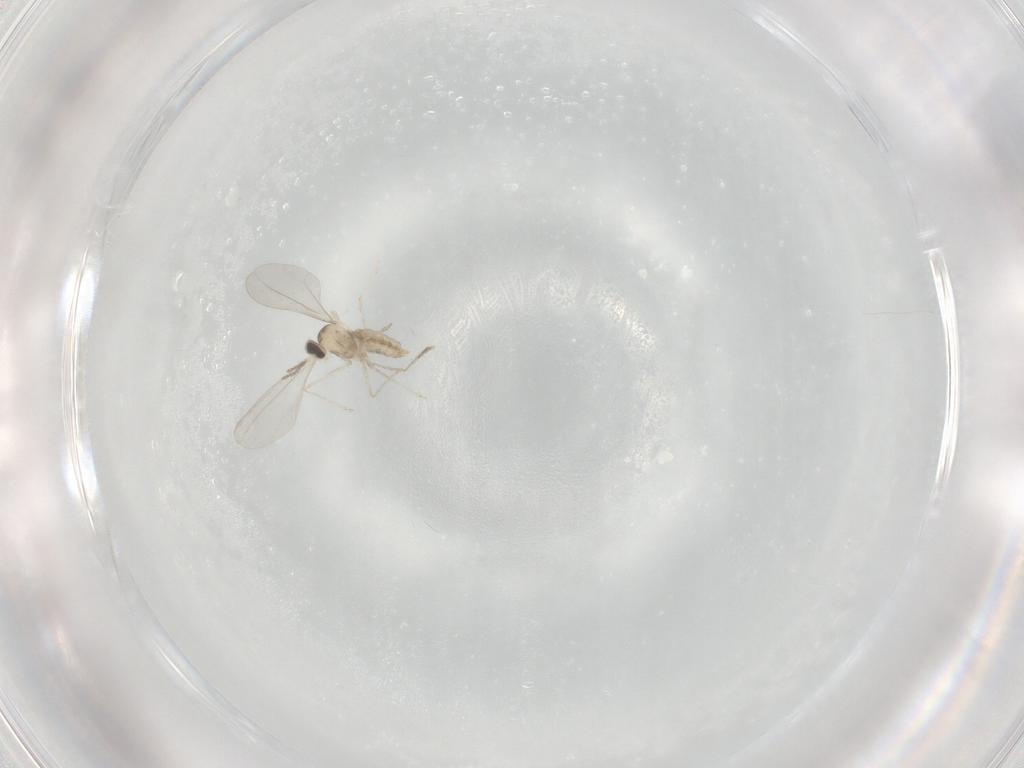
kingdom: Animalia
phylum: Arthropoda
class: Insecta
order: Diptera
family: Cecidomyiidae
